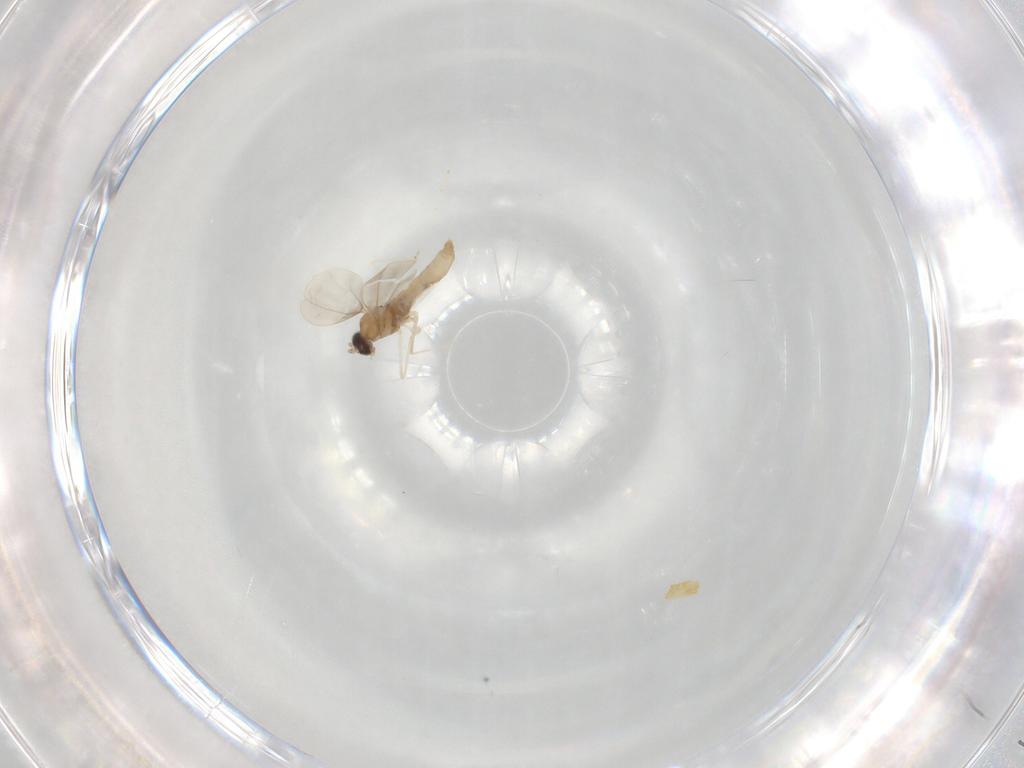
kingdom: Animalia
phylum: Arthropoda
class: Insecta
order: Diptera
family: Cecidomyiidae
